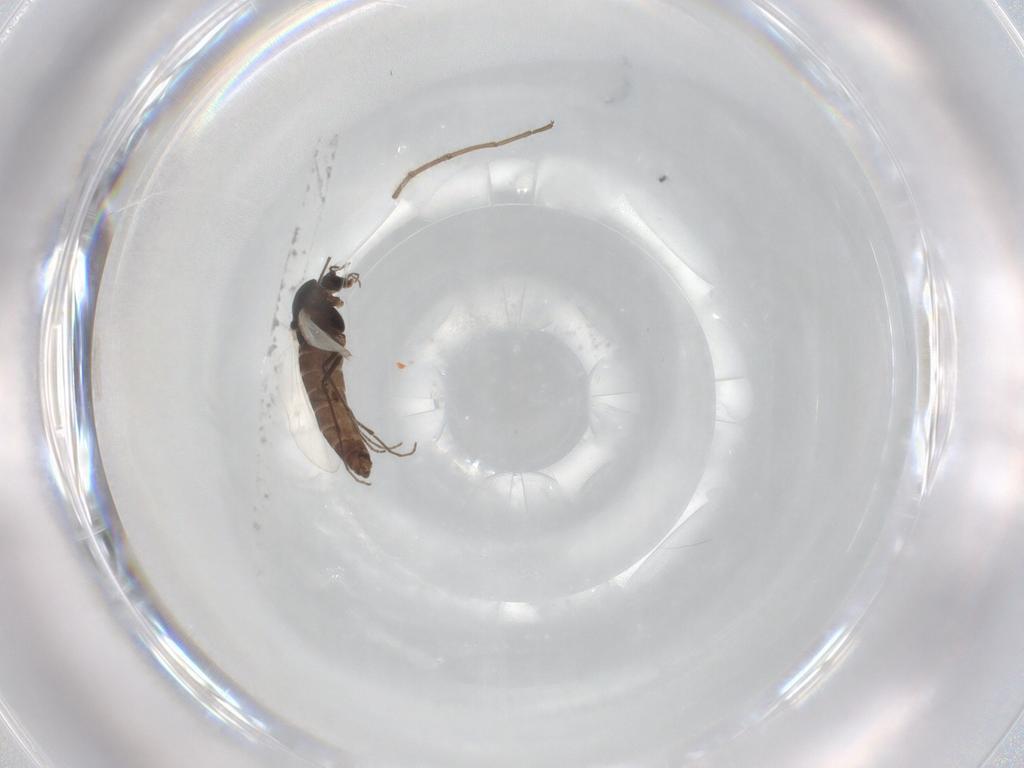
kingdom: Animalia
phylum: Arthropoda
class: Insecta
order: Diptera
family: Chironomidae
